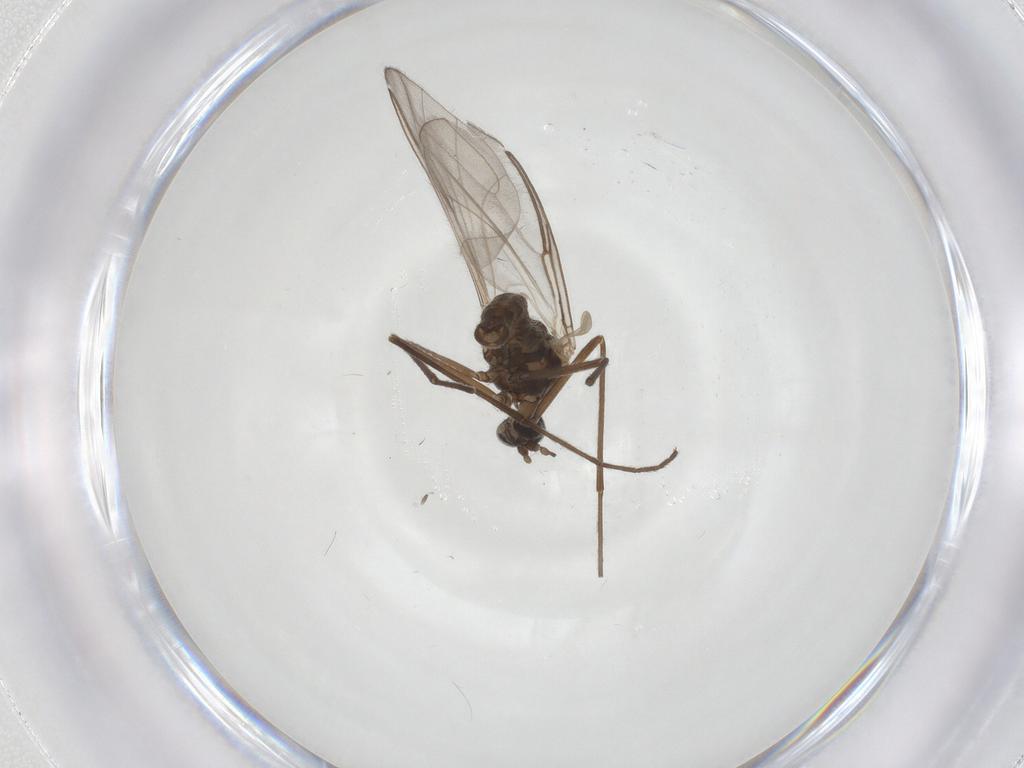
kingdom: Animalia
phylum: Arthropoda
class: Insecta
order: Diptera
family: Cecidomyiidae
